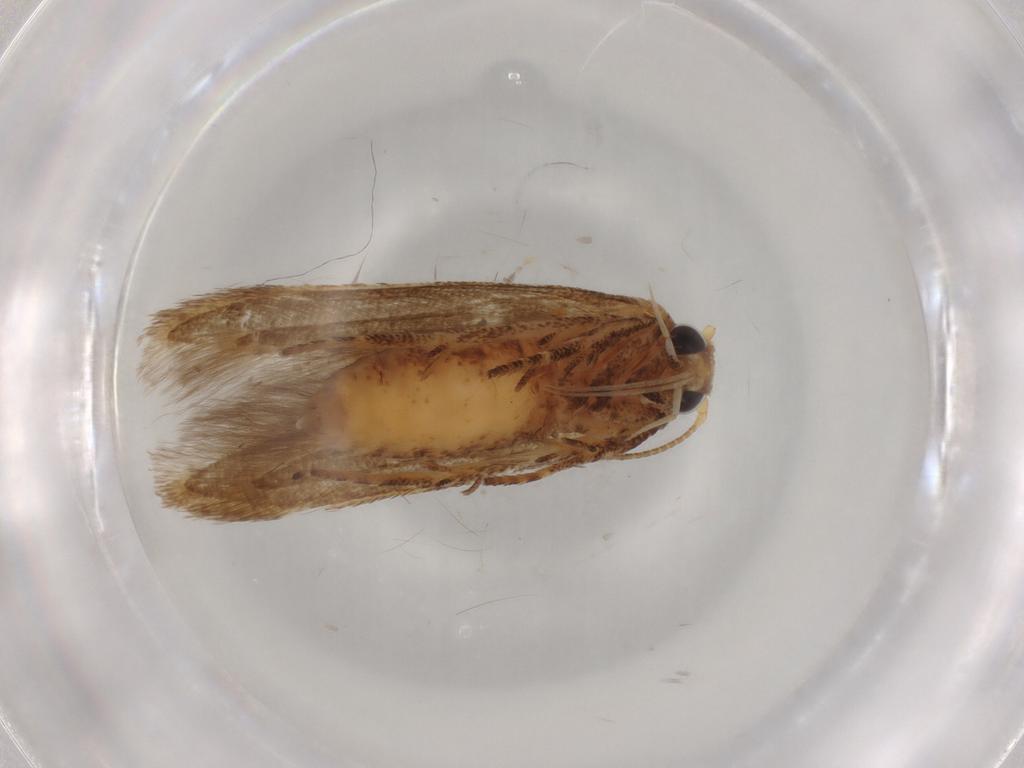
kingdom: Animalia
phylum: Arthropoda
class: Insecta
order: Lepidoptera
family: Blastobasidae
